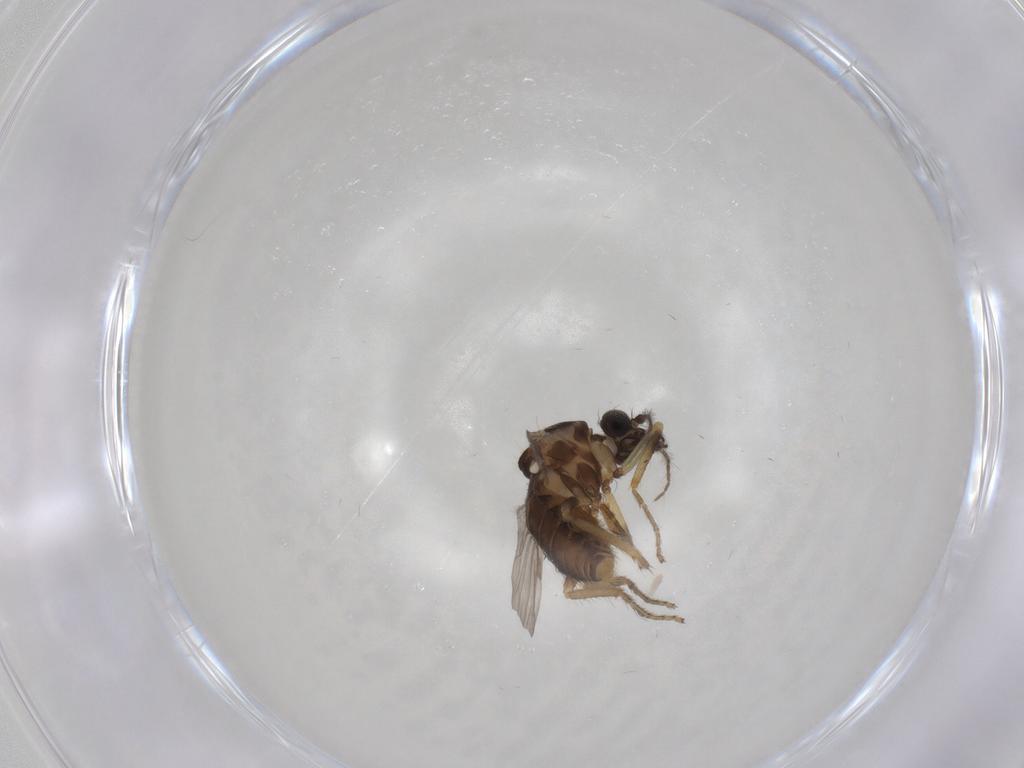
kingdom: Animalia
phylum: Arthropoda
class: Insecta
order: Diptera
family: Ceratopogonidae
